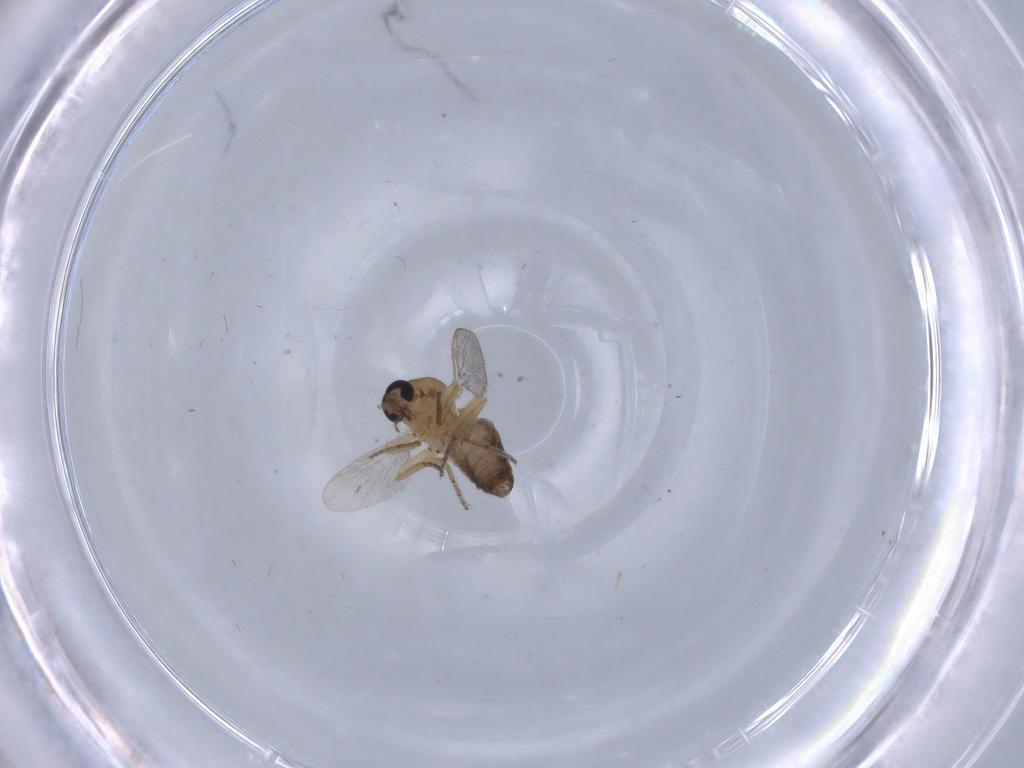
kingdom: Animalia
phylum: Arthropoda
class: Insecta
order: Diptera
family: Ceratopogonidae
